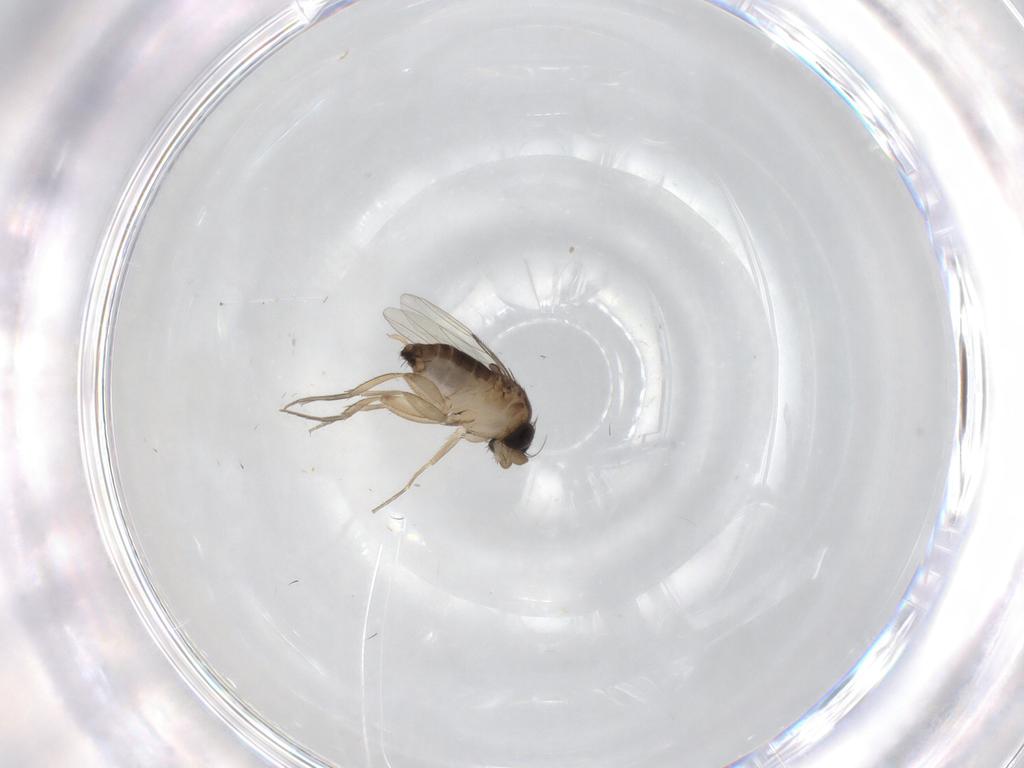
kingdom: Animalia
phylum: Arthropoda
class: Insecta
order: Diptera
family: Phoridae
